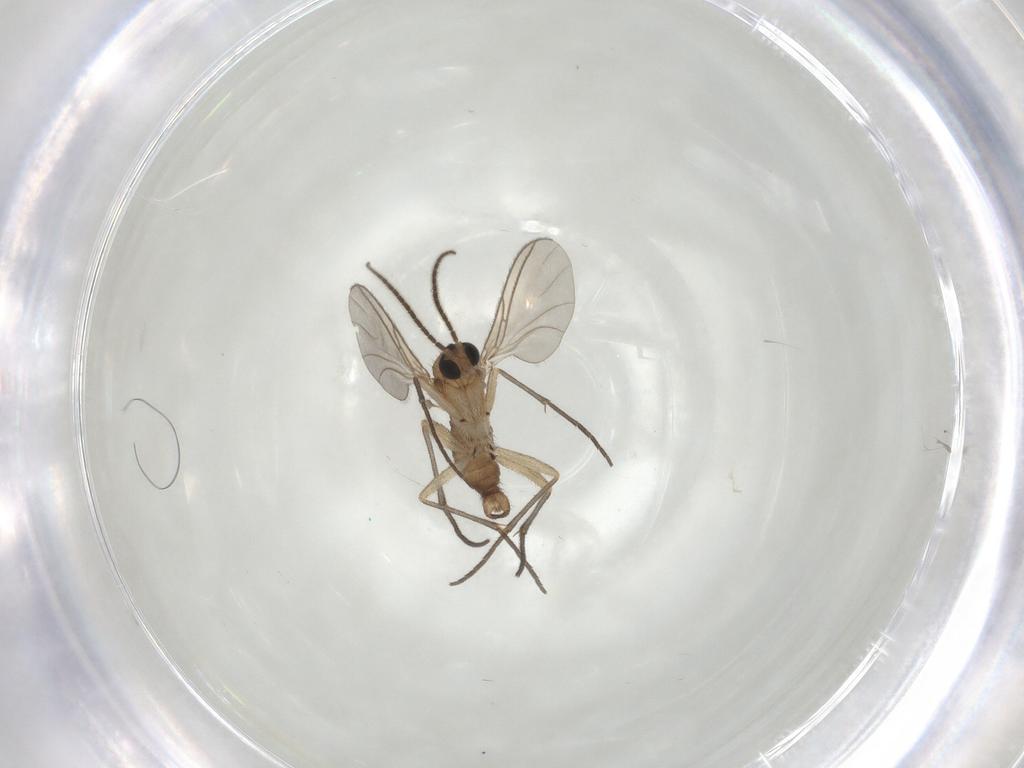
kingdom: Animalia
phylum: Arthropoda
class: Insecta
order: Diptera
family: Sciaridae
